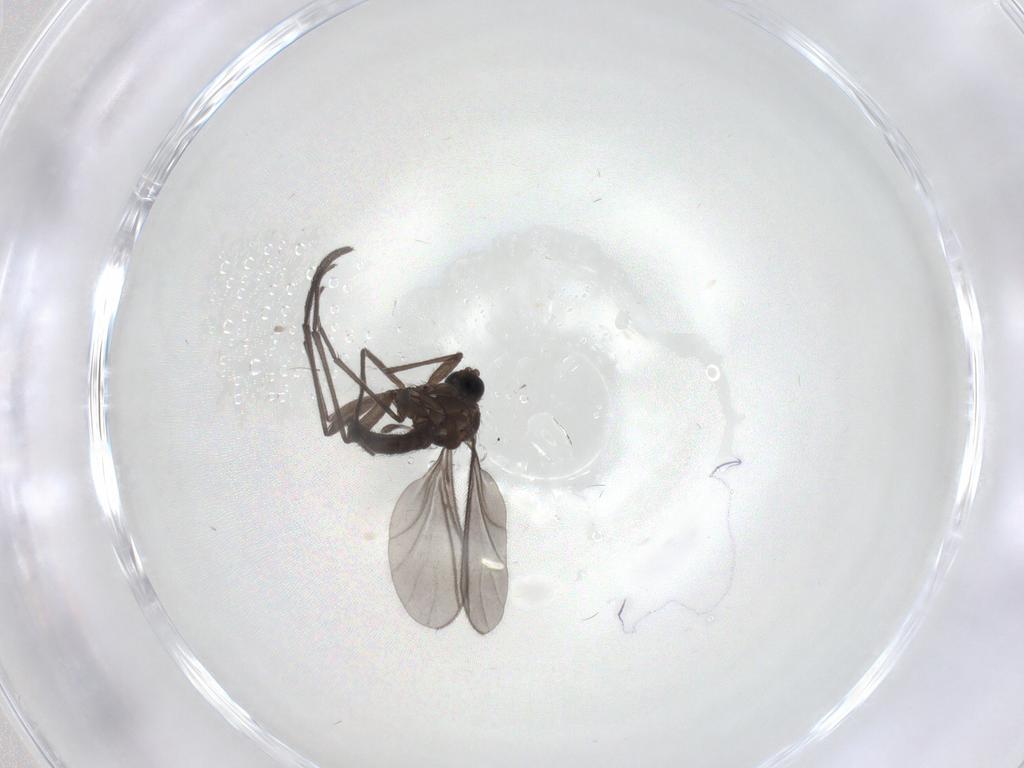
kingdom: Animalia
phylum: Arthropoda
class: Insecta
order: Diptera
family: Sciaridae
